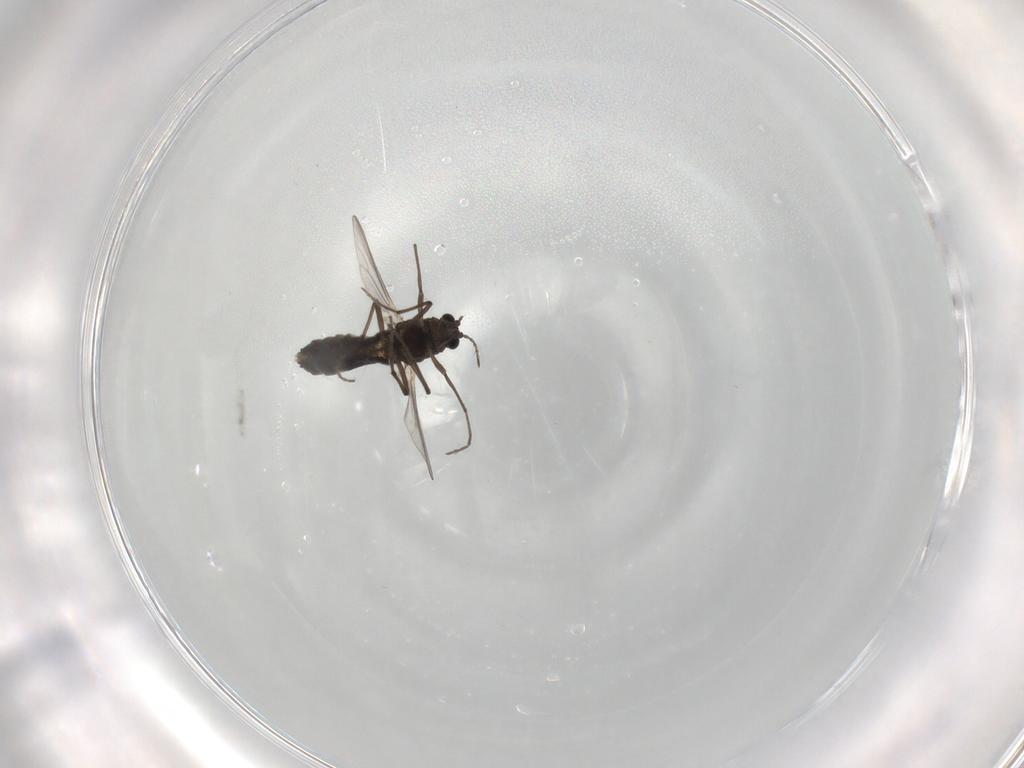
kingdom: Animalia
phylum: Arthropoda
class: Insecta
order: Diptera
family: Chironomidae
